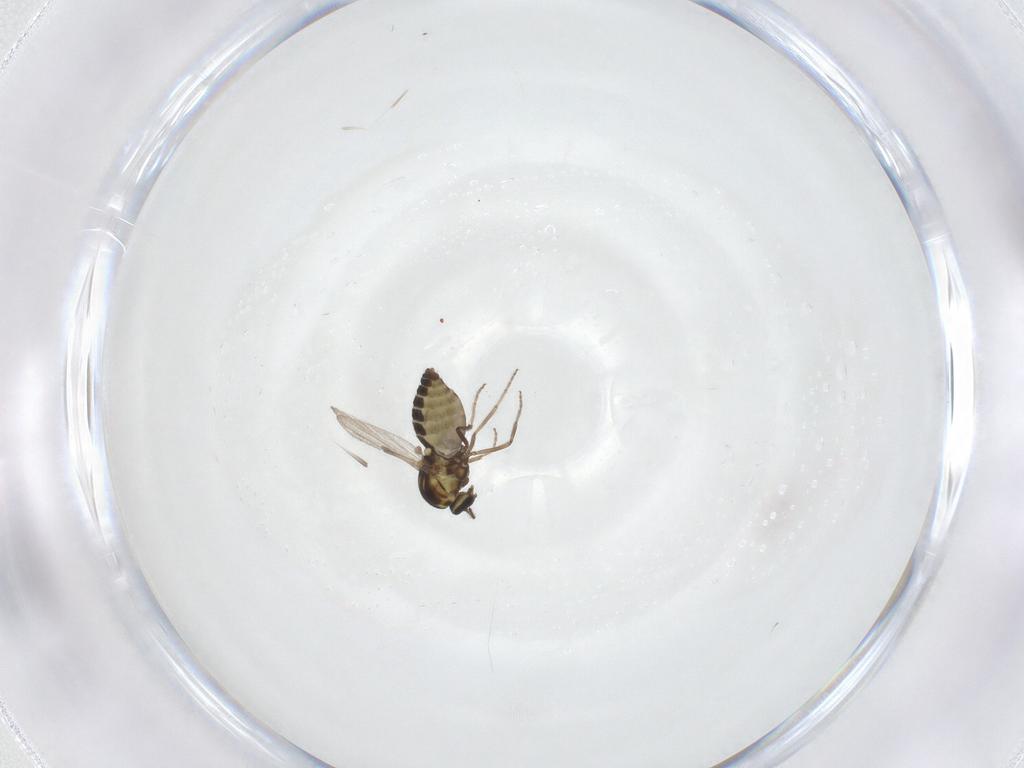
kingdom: Animalia
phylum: Arthropoda
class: Insecta
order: Diptera
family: Ceratopogonidae
